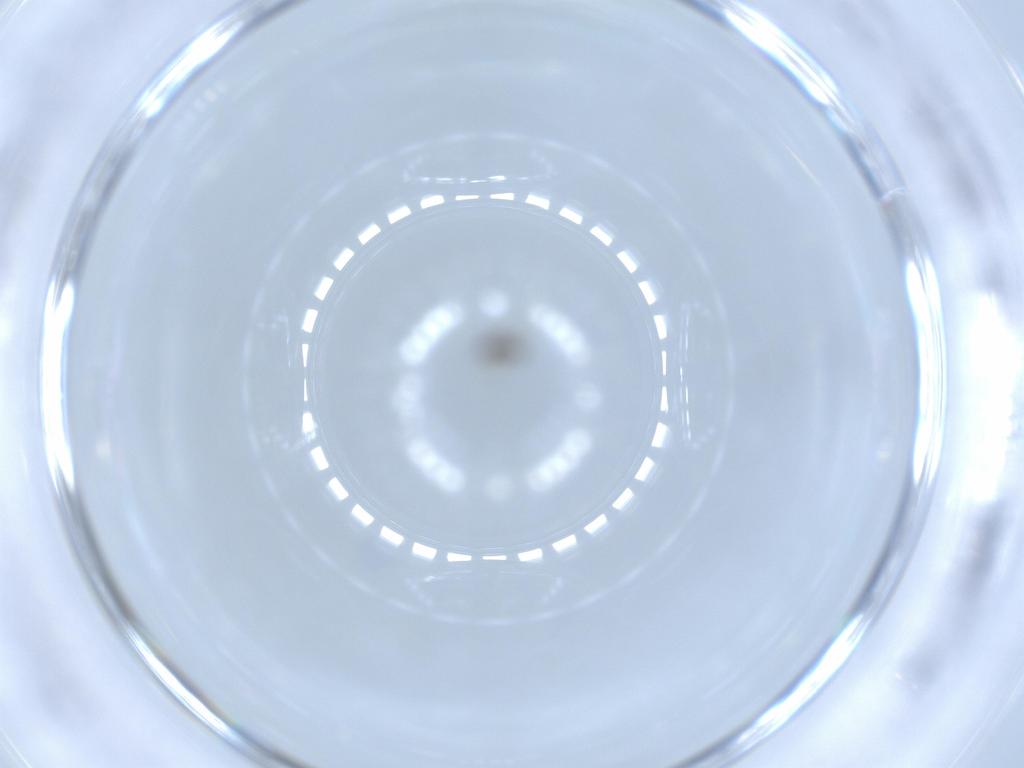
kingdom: Animalia
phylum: Arthropoda
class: Insecta
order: Hymenoptera
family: Mymaridae
